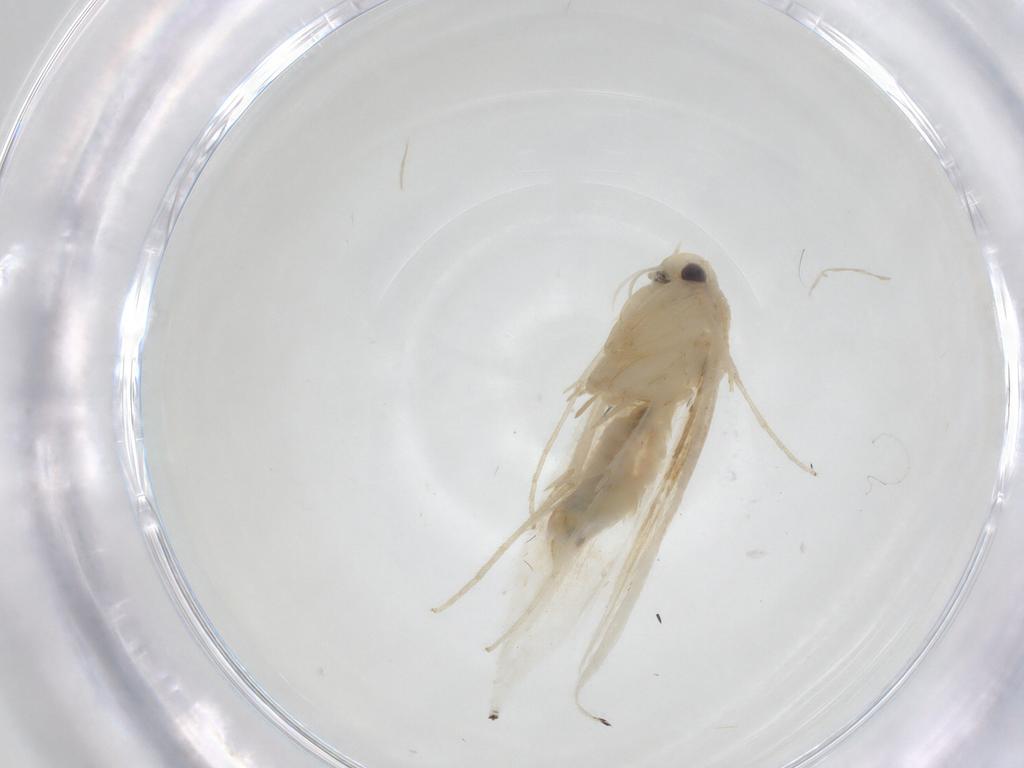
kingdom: Animalia
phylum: Arthropoda
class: Insecta
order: Lepidoptera
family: Gracillariidae
